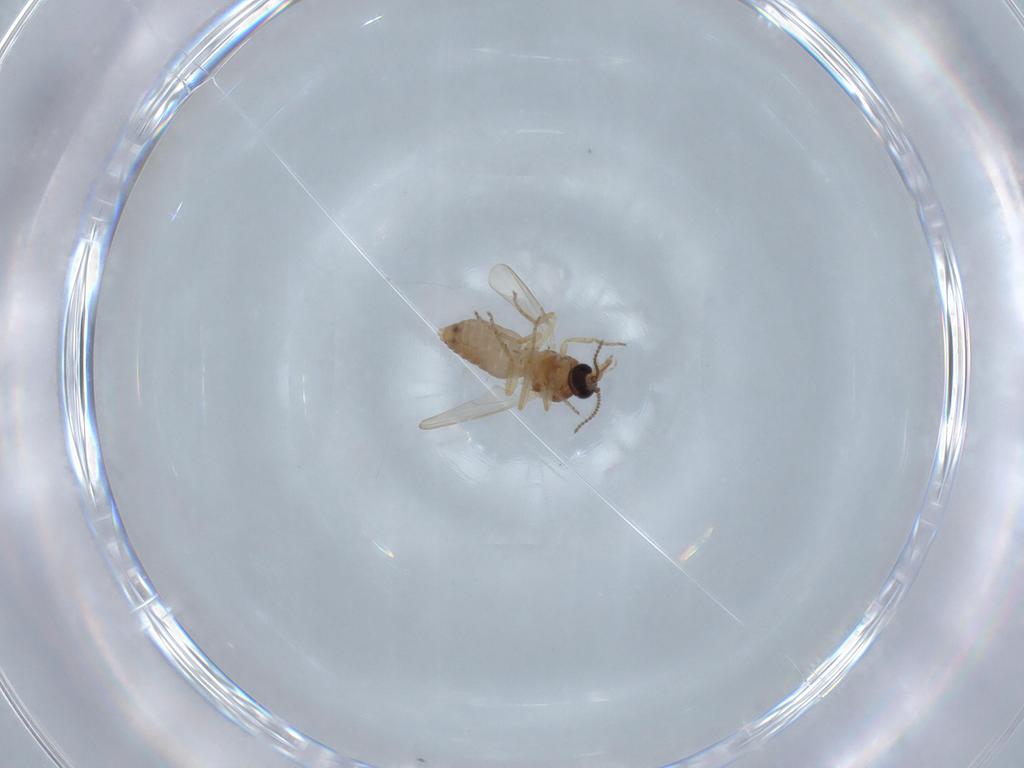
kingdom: Animalia
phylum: Arthropoda
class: Insecta
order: Diptera
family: Ceratopogonidae
